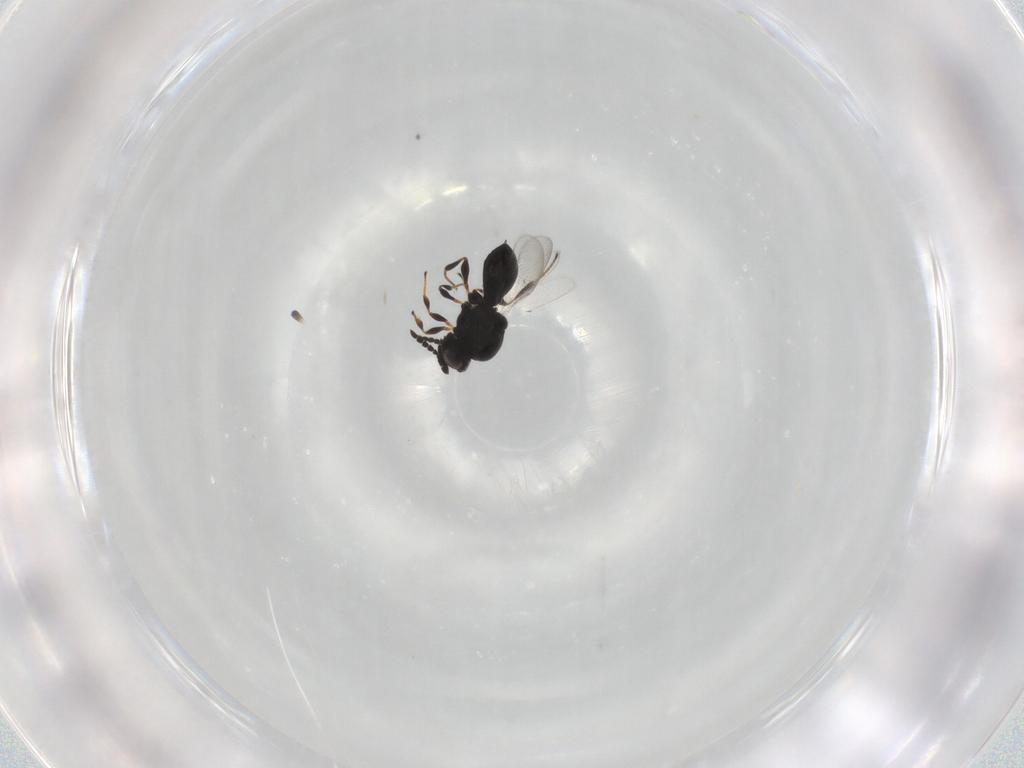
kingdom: Animalia
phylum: Arthropoda
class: Insecta
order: Hymenoptera
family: Platygastridae
